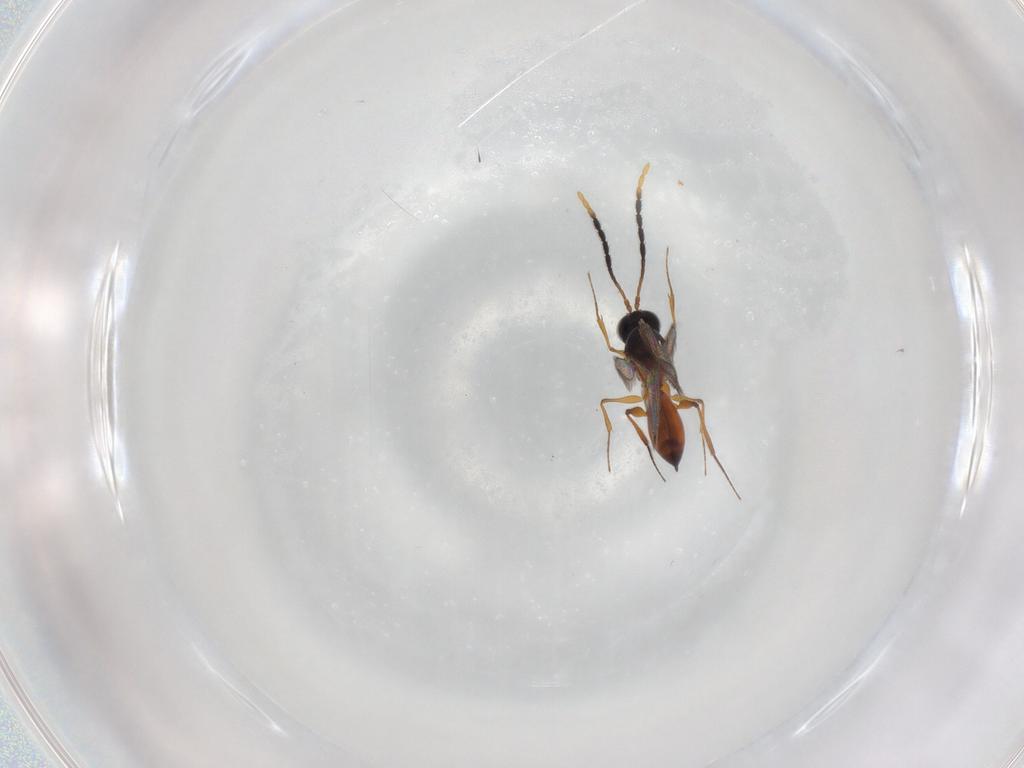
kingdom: Animalia
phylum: Arthropoda
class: Insecta
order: Hymenoptera
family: Figitidae
